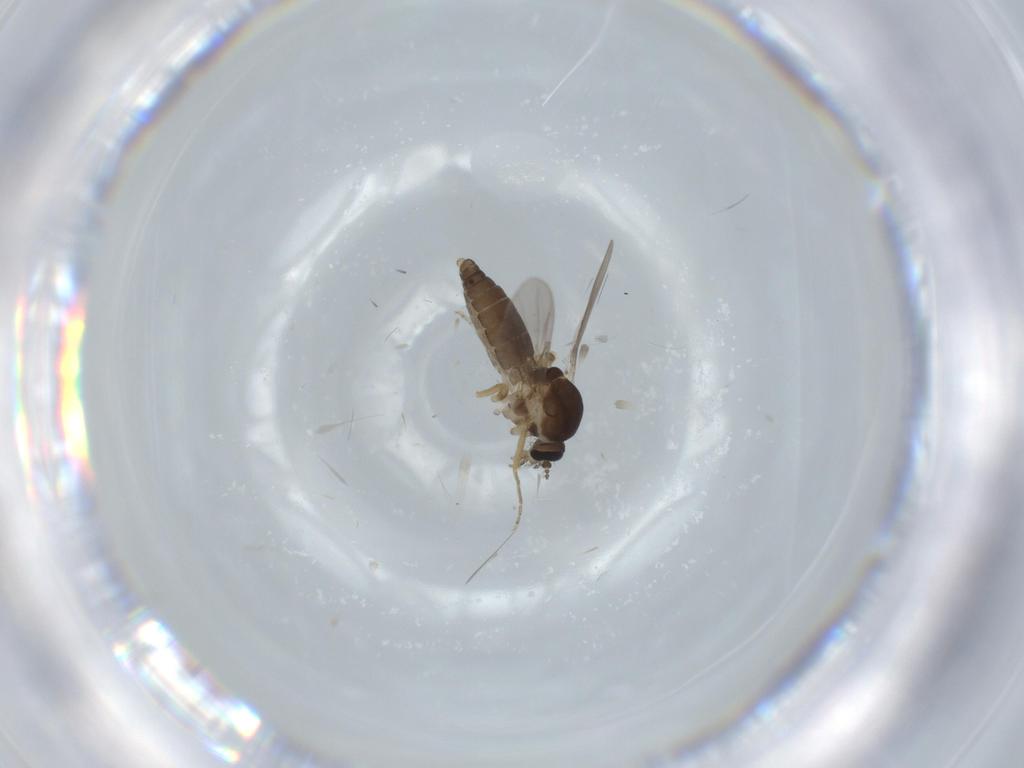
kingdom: Animalia
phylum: Arthropoda
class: Insecta
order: Diptera
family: Ceratopogonidae
